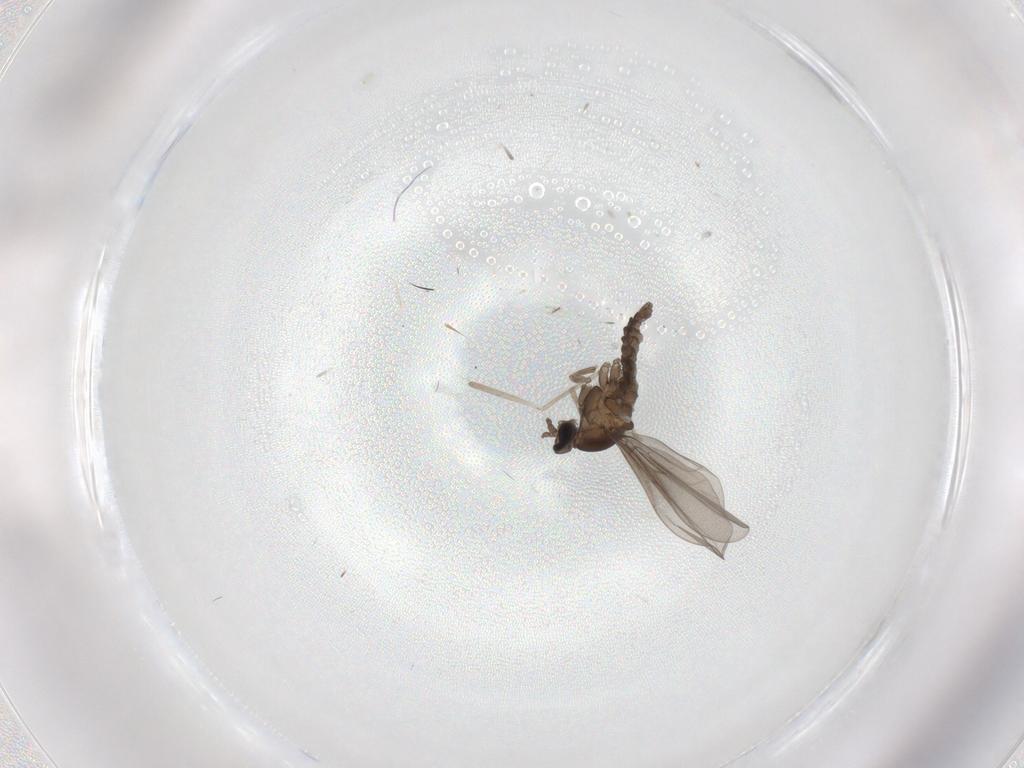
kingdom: Animalia
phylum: Arthropoda
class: Insecta
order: Diptera
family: Cecidomyiidae
